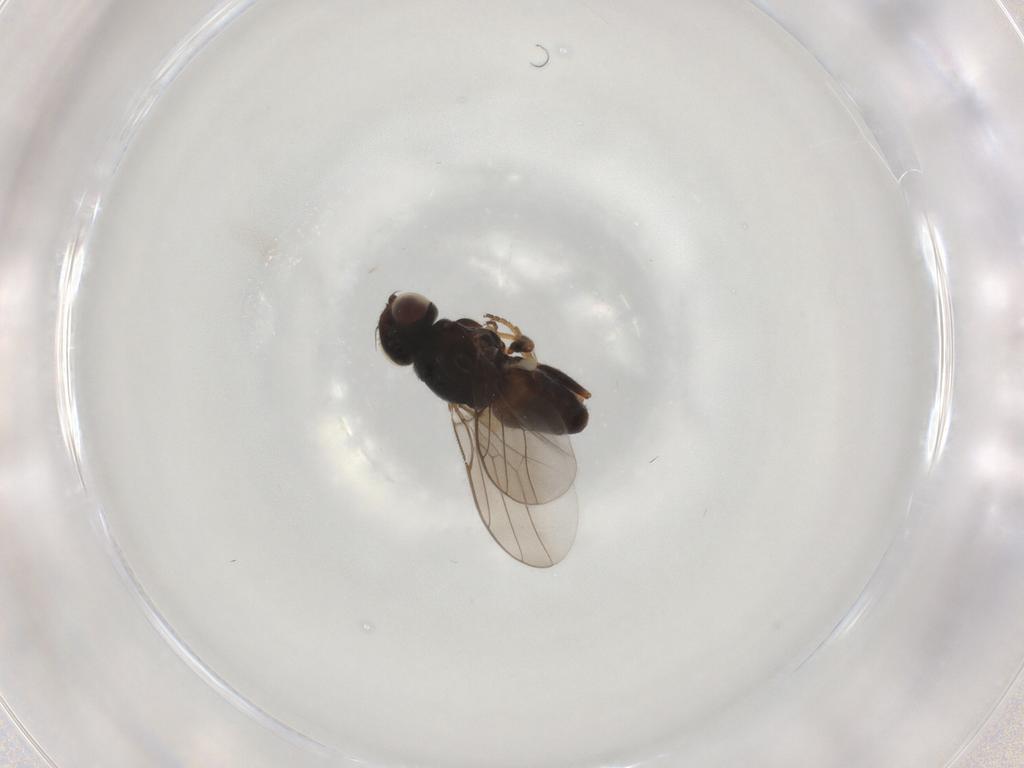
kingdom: Animalia
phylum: Arthropoda
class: Insecta
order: Diptera
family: Chloropidae
